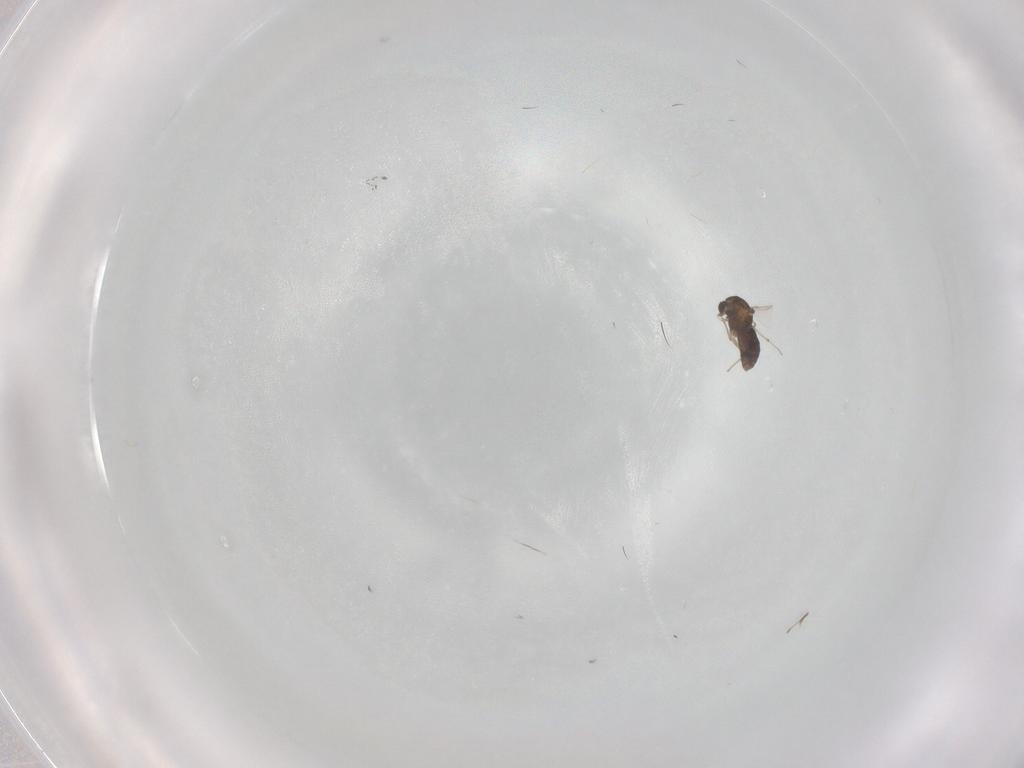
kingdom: Animalia
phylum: Arthropoda
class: Insecta
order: Diptera
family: Chironomidae
